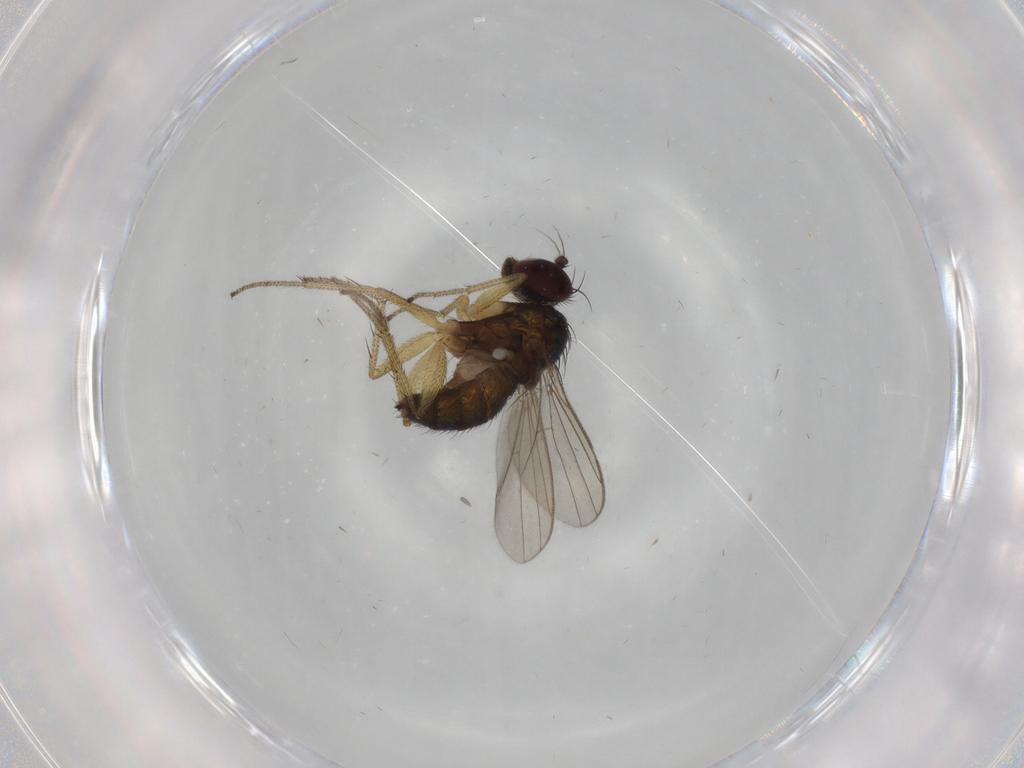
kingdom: Animalia
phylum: Arthropoda
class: Insecta
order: Diptera
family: Dolichopodidae
